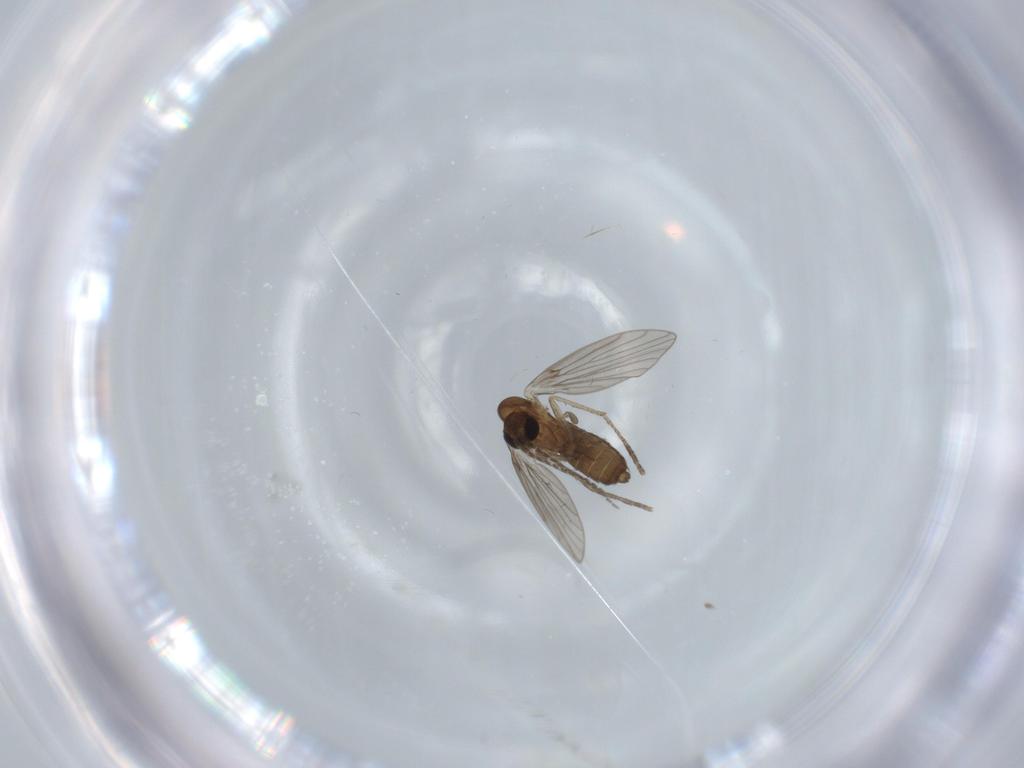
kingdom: Animalia
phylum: Arthropoda
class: Insecta
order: Diptera
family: Psychodidae
